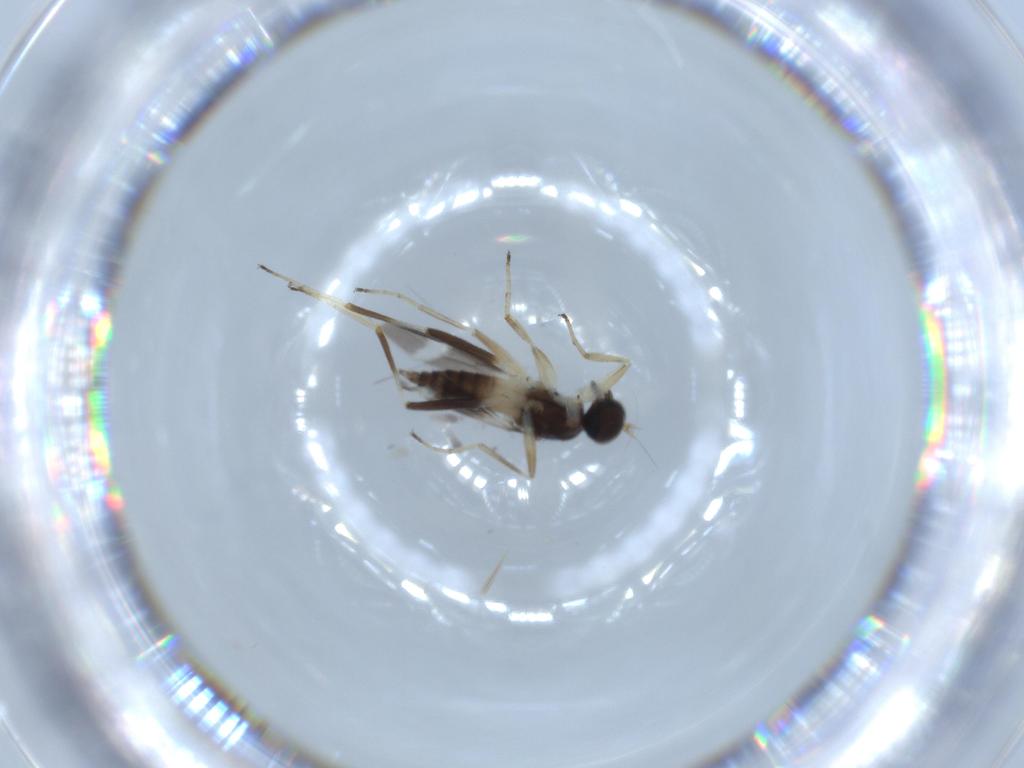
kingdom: Animalia
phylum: Arthropoda
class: Insecta
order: Diptera
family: Hybotidae
